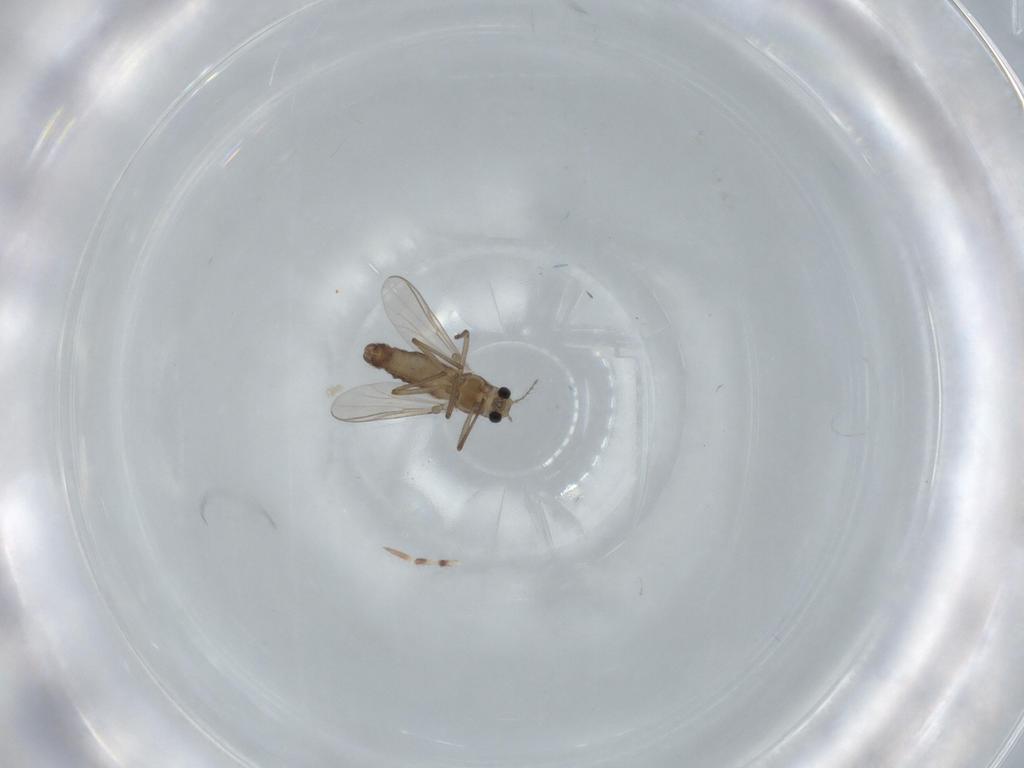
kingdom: Animalia
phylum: Arthropoda
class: Insecta
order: Diptera
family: Chironomidae
